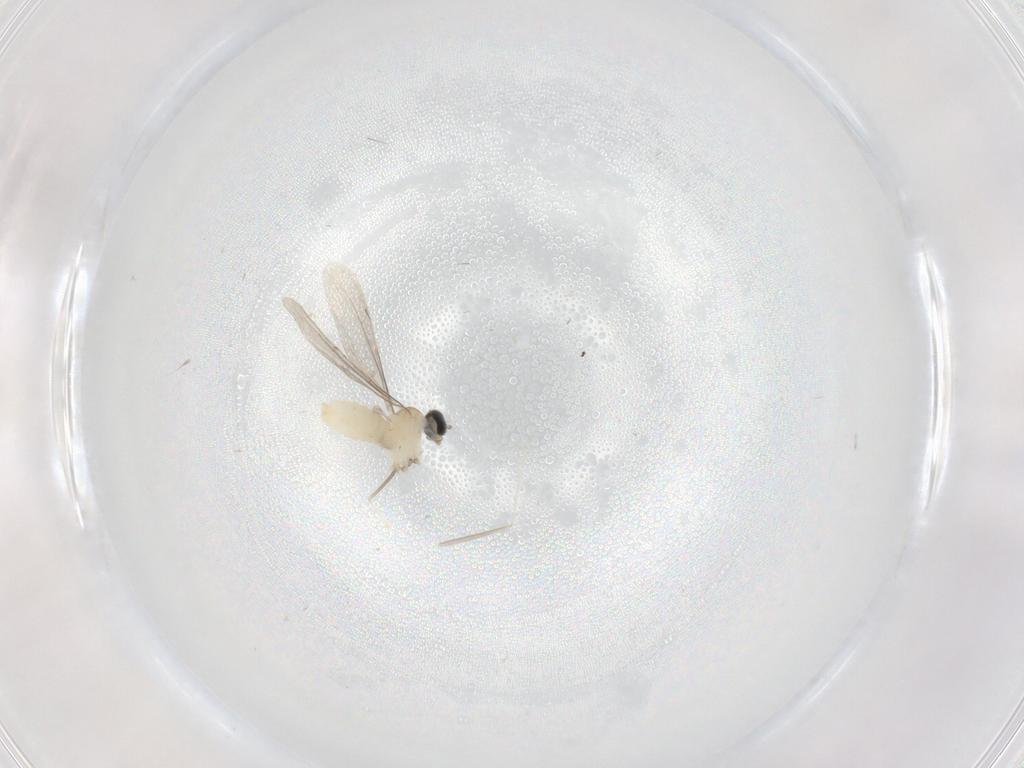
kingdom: Animalia
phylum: Arthropoda
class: Insecta
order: Diptera
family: Cecidomyiidae
